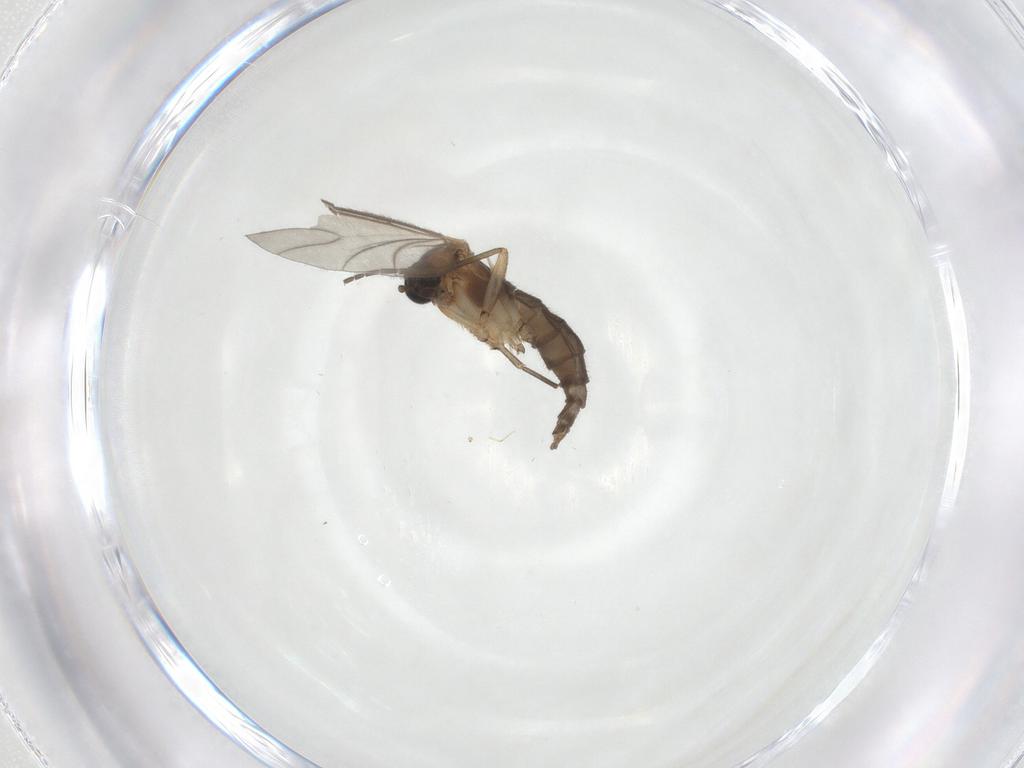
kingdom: Animalia
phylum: Arthropoda
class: Insecta
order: Diptera
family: Sciaridae
